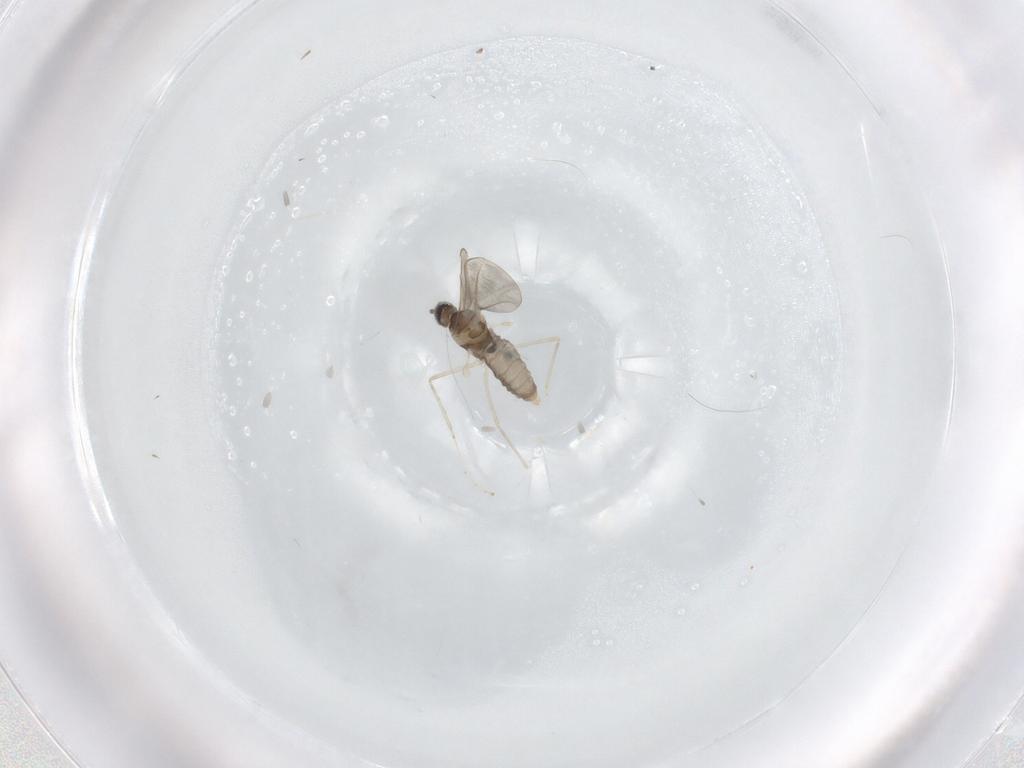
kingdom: Animalia
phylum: Arthropoda
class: Insecta
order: Diptera
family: Cecidomyiidae
